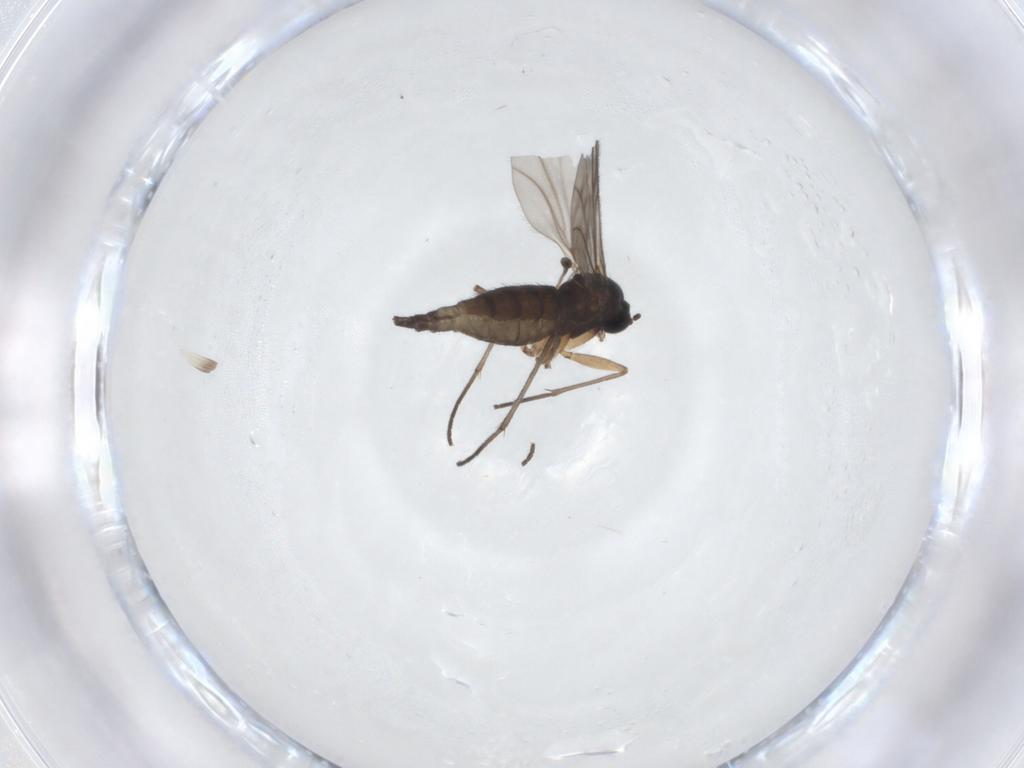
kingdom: Animalia
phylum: Arthropoda
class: Insecta
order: Diptera
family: Sciaridae
